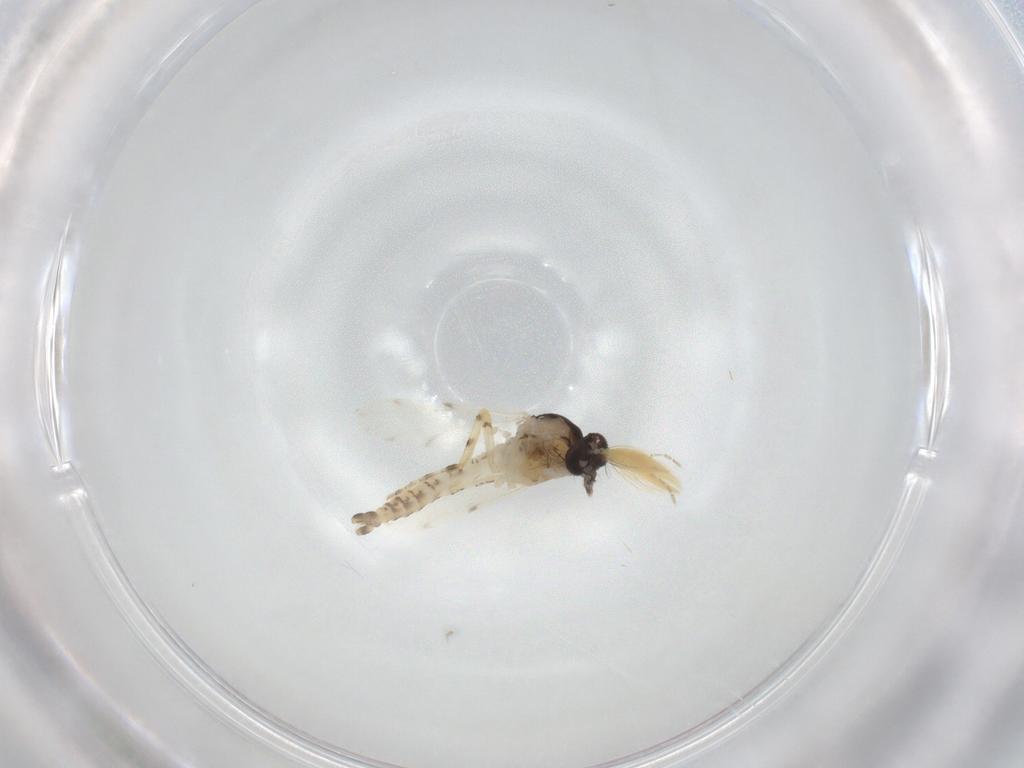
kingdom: Animalia
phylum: Arthropoda
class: Insecta
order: Diptera
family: Ceratopogonidae
